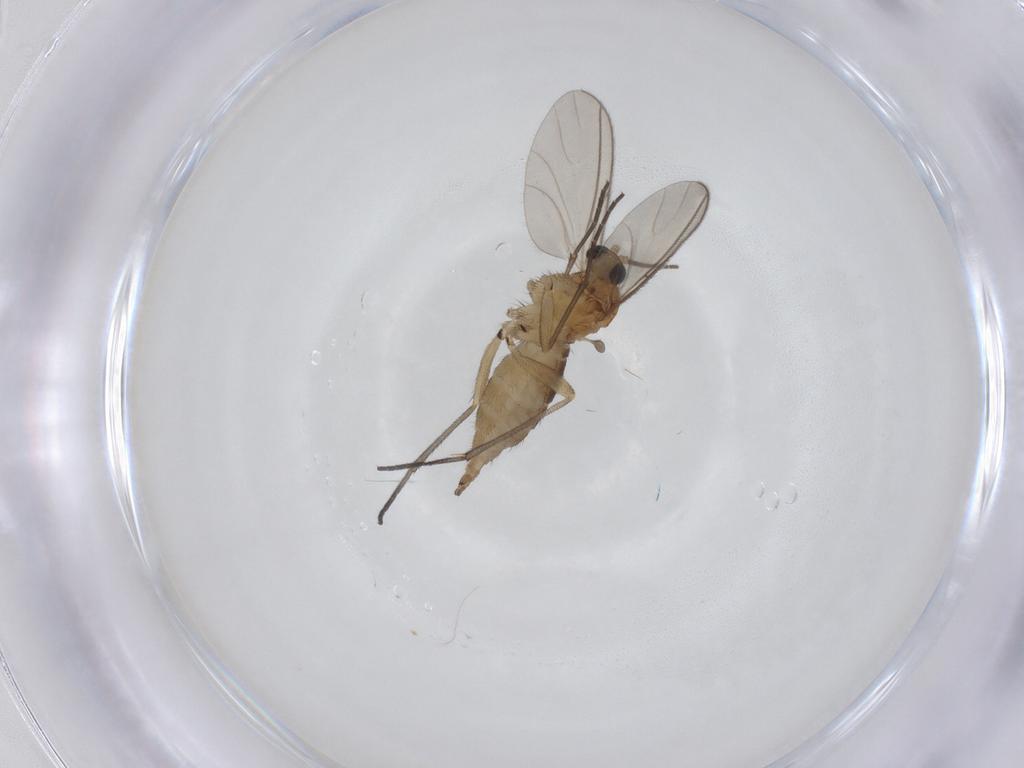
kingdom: Animalia
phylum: Arthropoda
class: Insecta
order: Diptera
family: Sciaridae
